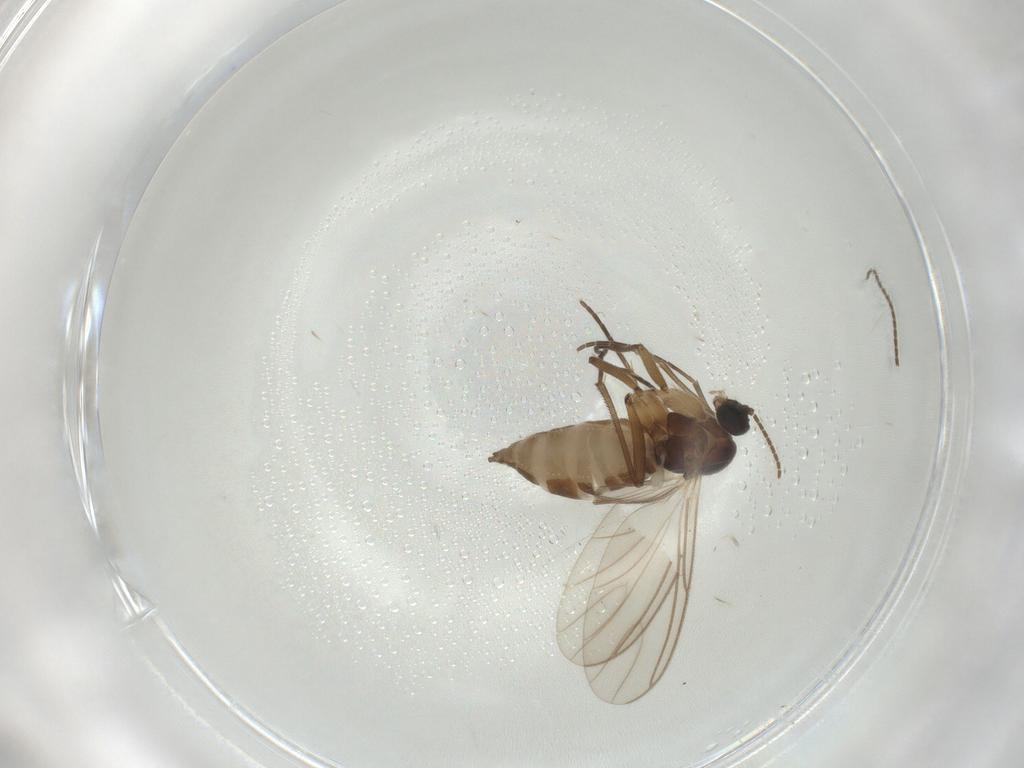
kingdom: Animalia
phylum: Arthropoda
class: Insecta
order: Diptera
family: Sciaridae
